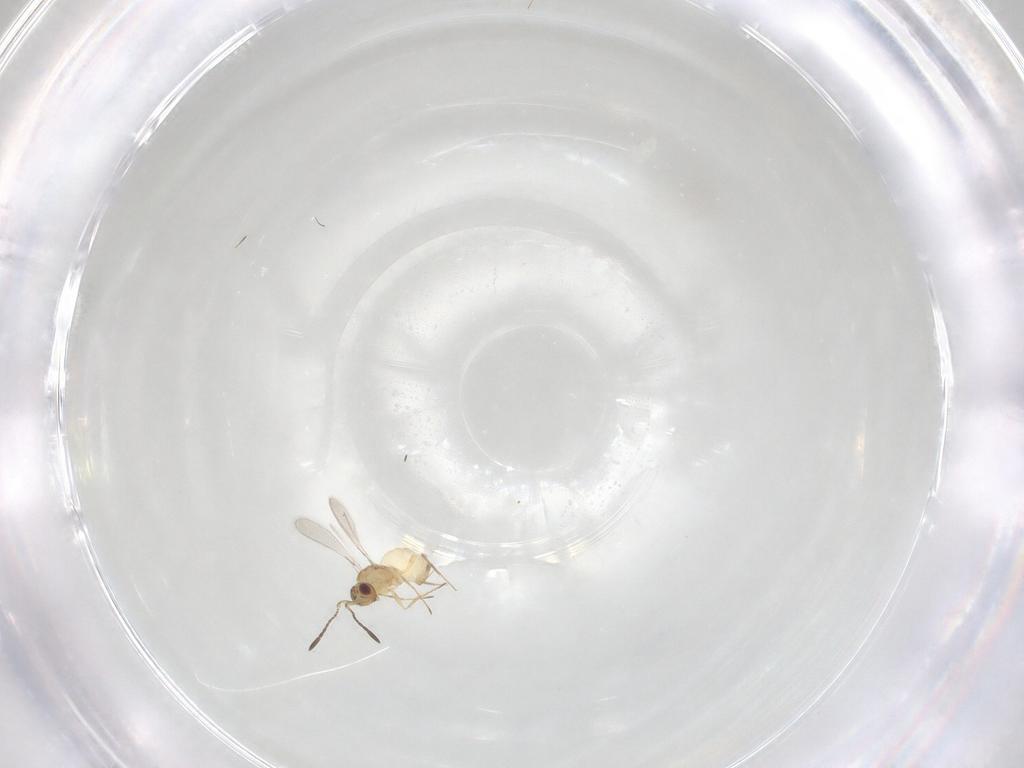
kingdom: Animalia
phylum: Arthropoda
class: Insecta
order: Hymenoptera
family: Mymaridae
